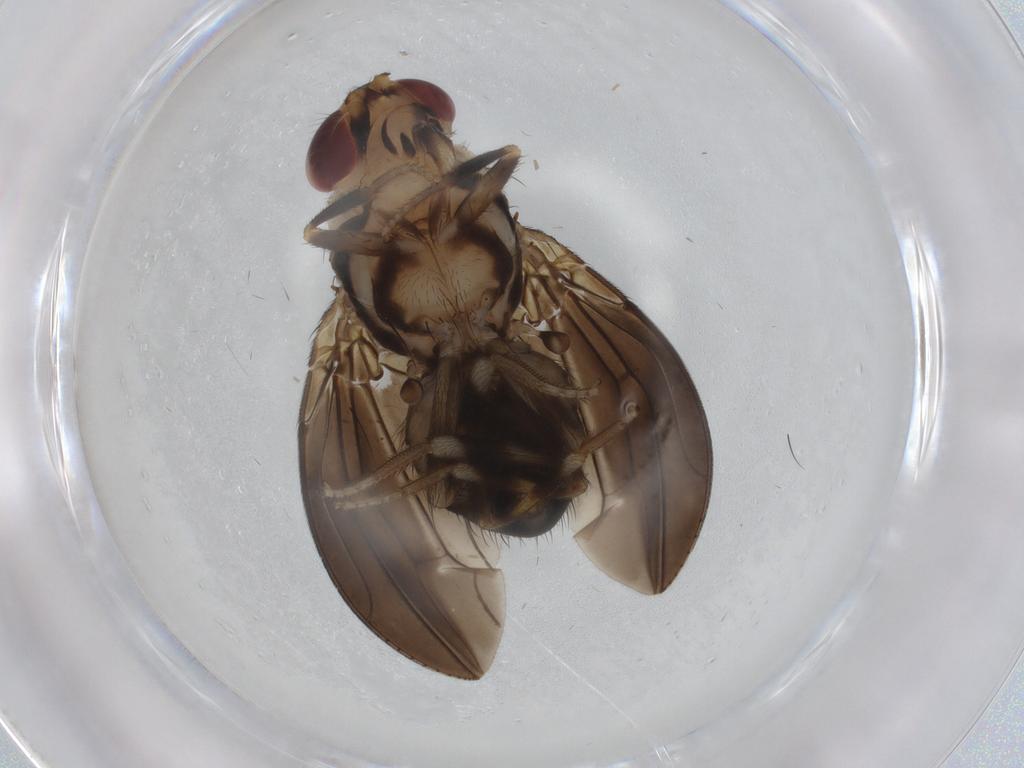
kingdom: Animalia
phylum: Arthropoda
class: Insecta
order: Diptera
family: Phoridae
